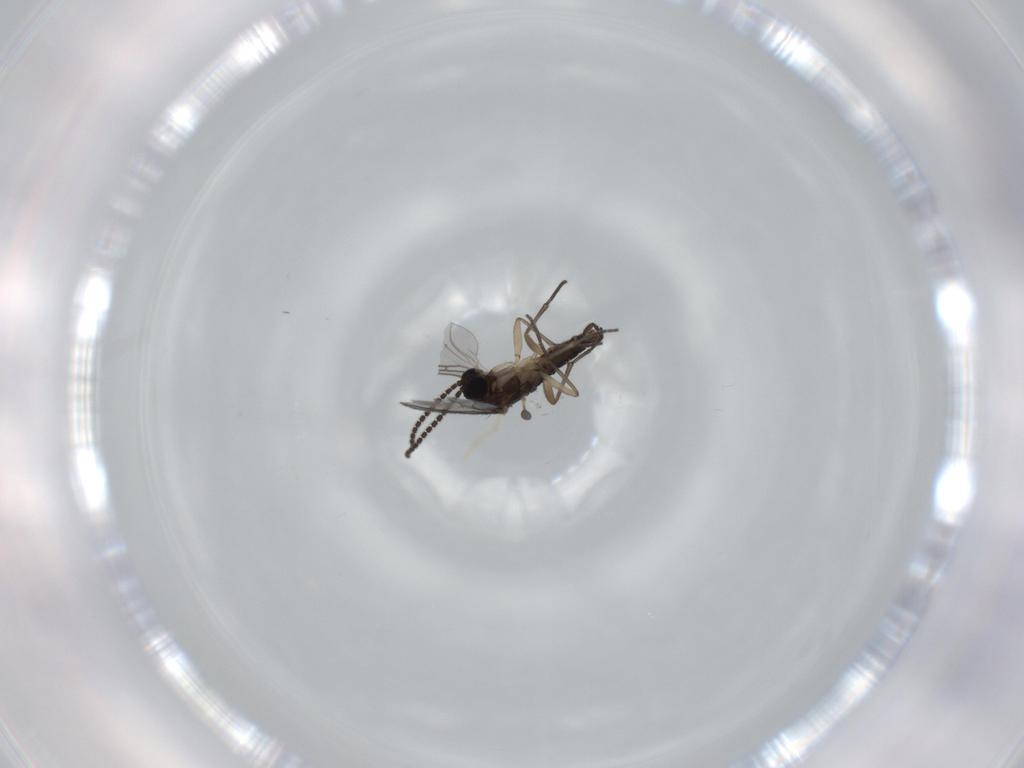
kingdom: Animalia
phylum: Arthropoda
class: Insecta
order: Diptera
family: Sciaridae
